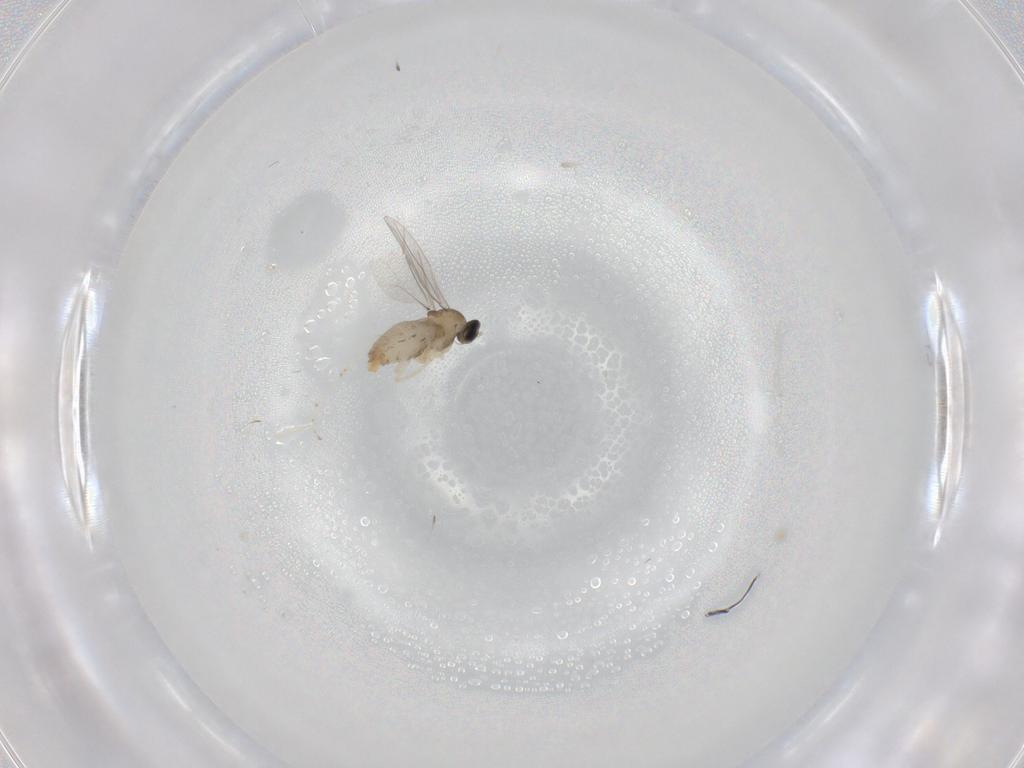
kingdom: Animalia
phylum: Arthropoda
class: Insecta
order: Diptera
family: Cecidomyiidae
